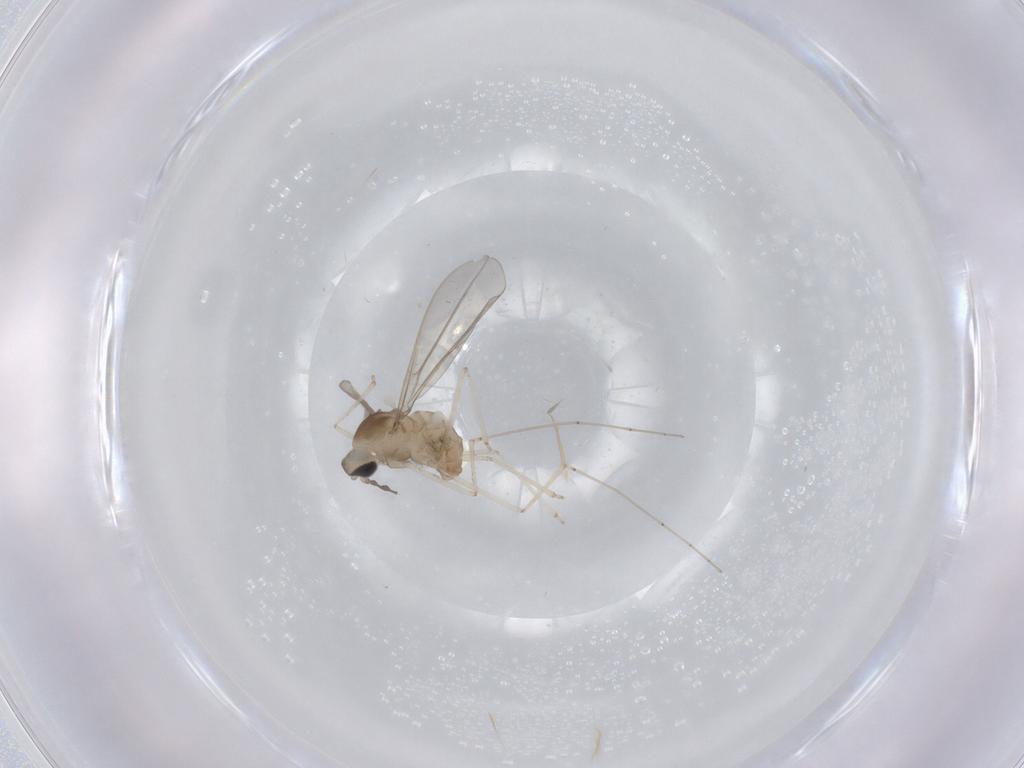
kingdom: Animalia
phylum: Arthropoda
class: Insecta
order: Diptera
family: Cecidomyiidae
